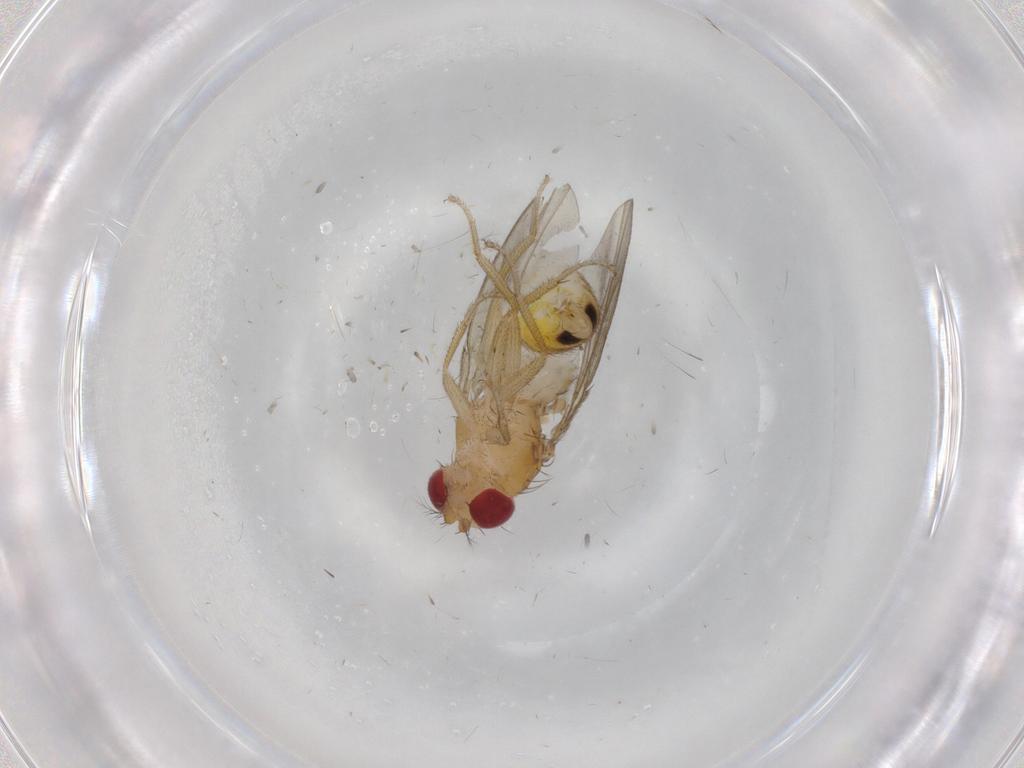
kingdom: Animalia
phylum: Arthropoda
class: Insecta
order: Diptera
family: Drosophilidae
